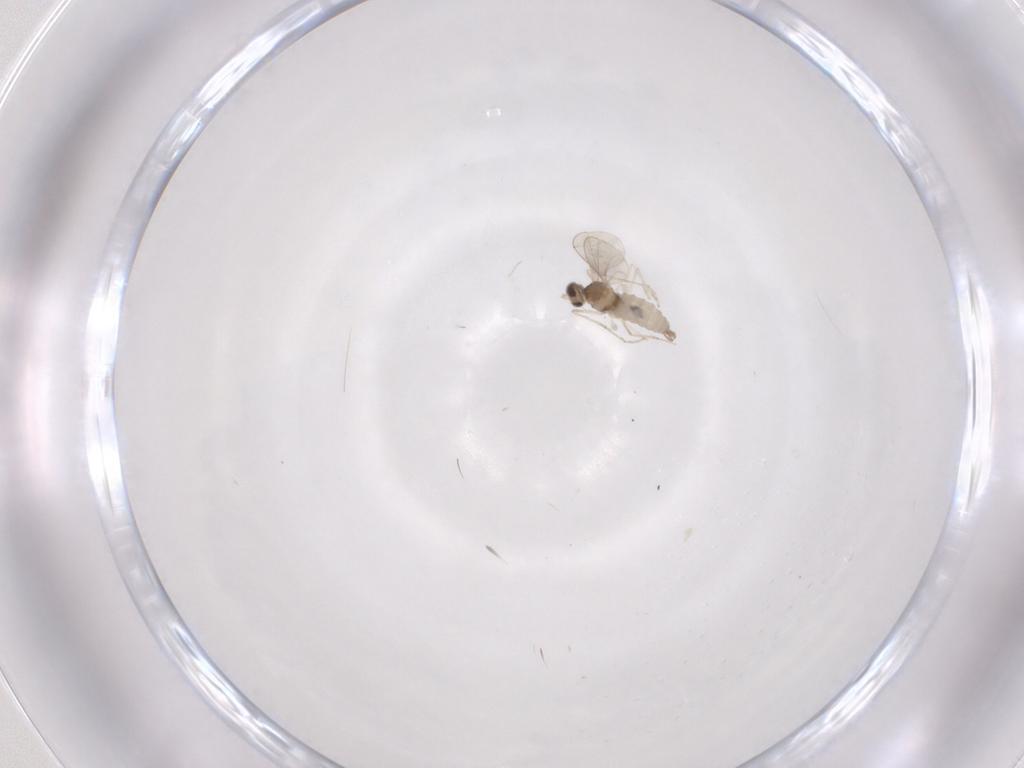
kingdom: Animalia
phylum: Arthropoda
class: Insecta
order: Diptera
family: Cecidomyiidae
